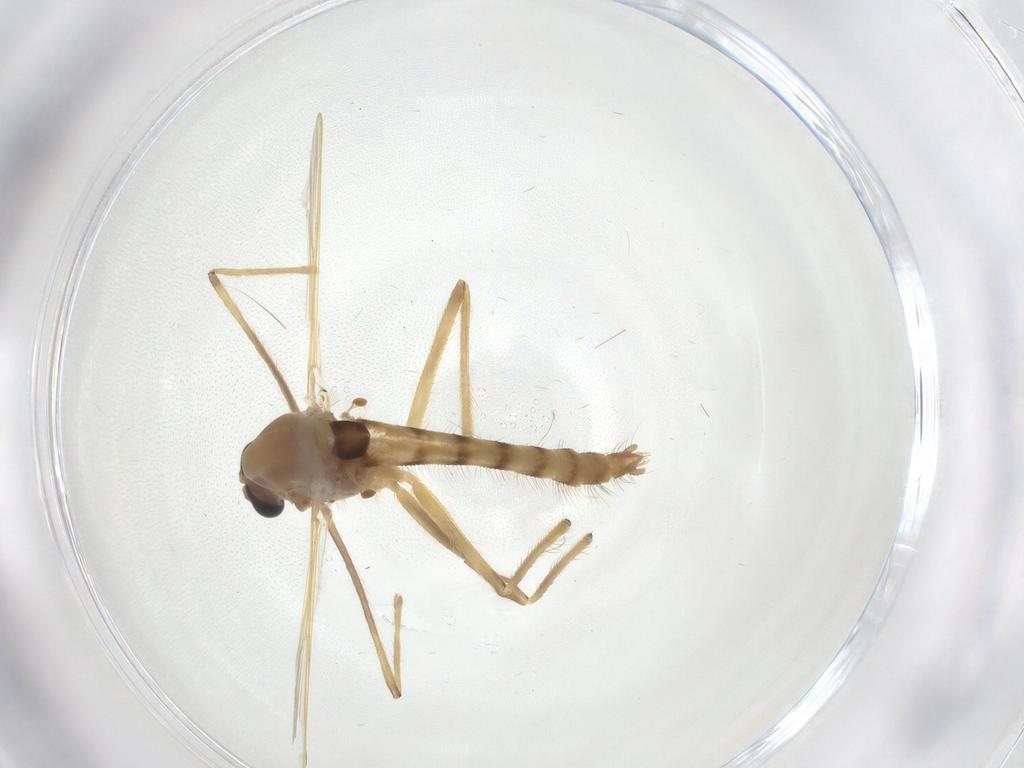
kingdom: Animalia
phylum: Arthropoda
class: Insecta
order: Diptera
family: Chironomidae
